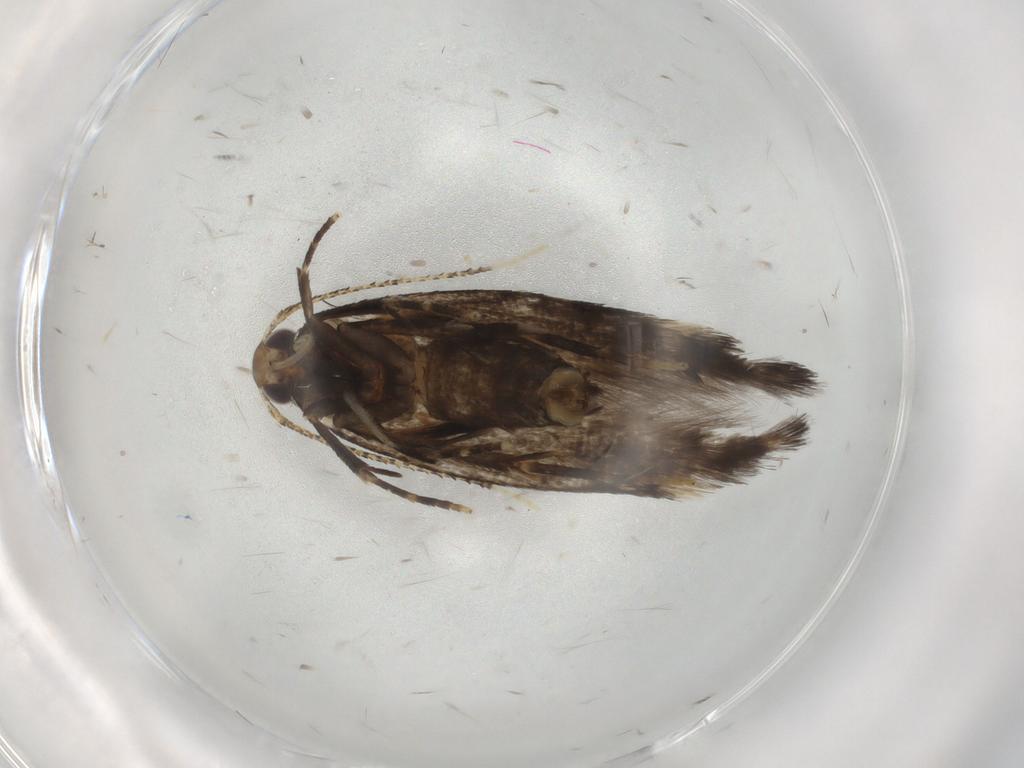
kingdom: Animalia
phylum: Arthropoda
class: Insecta
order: Lepidoptera
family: Cosmopterigidae
